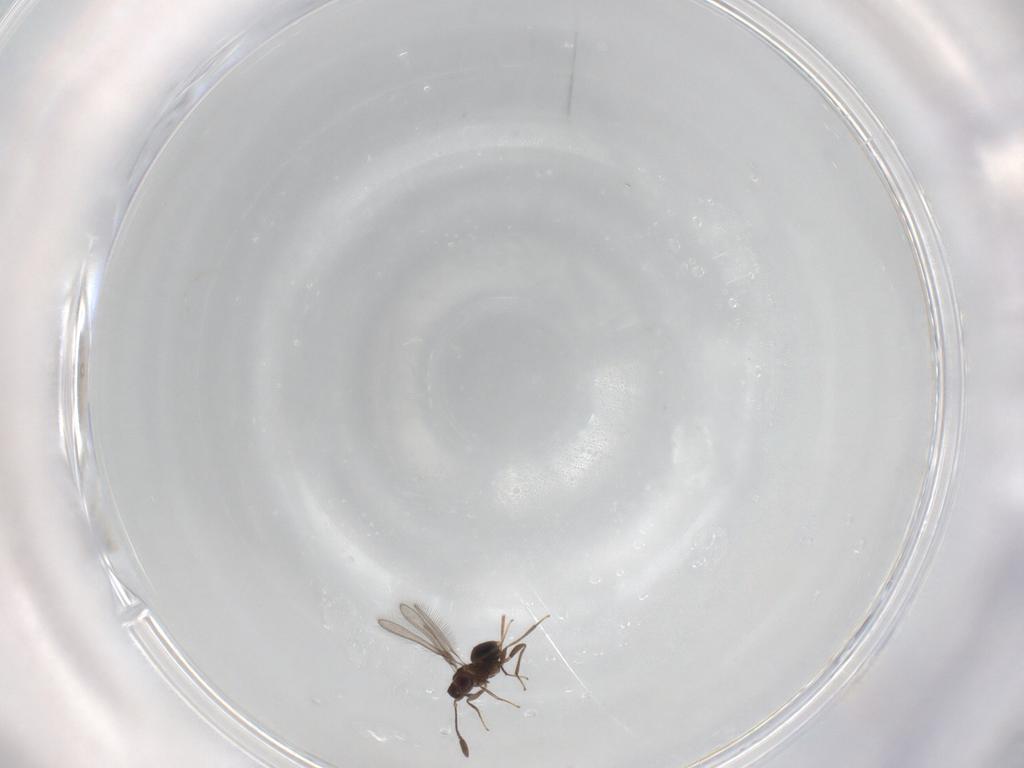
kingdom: Animalia
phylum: Arthropoda
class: Insecta
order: Hymenoptera
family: Mymaridae
